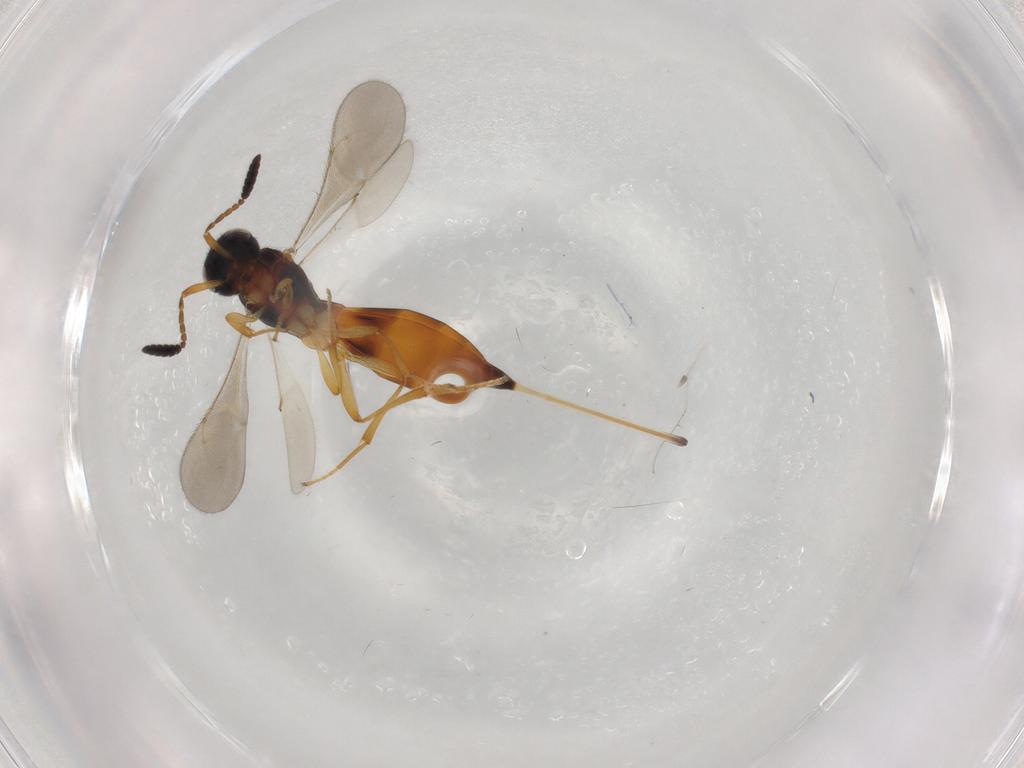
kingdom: Animalia
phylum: Arthropoda
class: Insecta
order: Hymenoptera
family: Scelionidae
